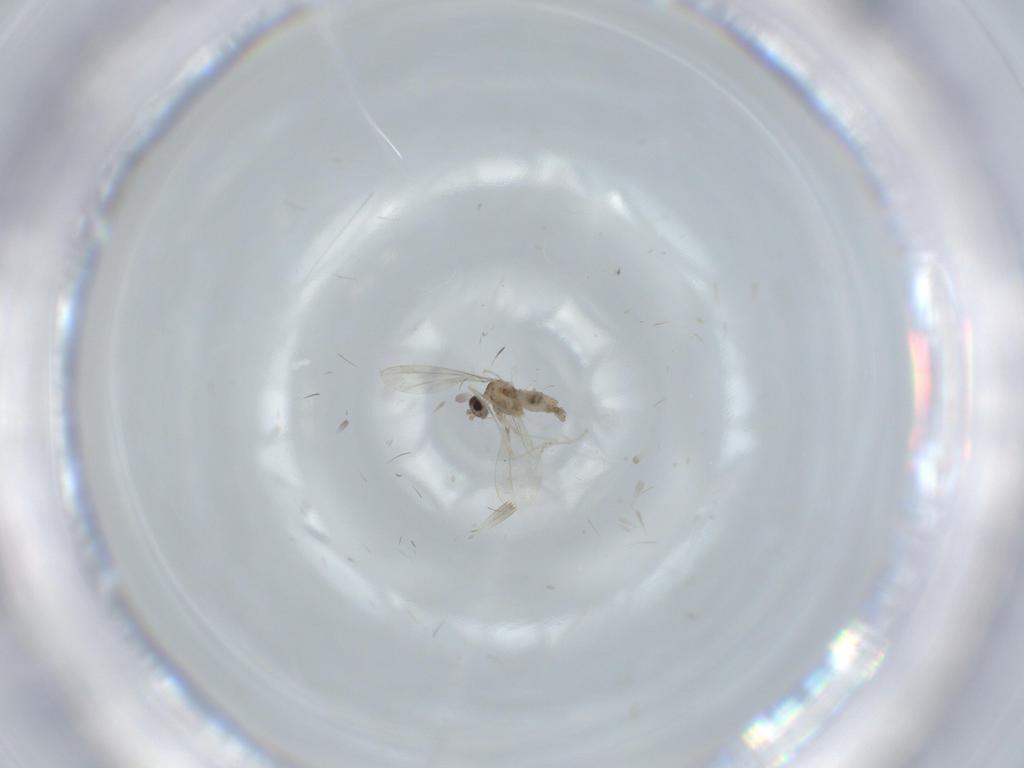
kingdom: Animalia
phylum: Arthropoda
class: Insecta
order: Diptera
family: Cecidomyiidae
